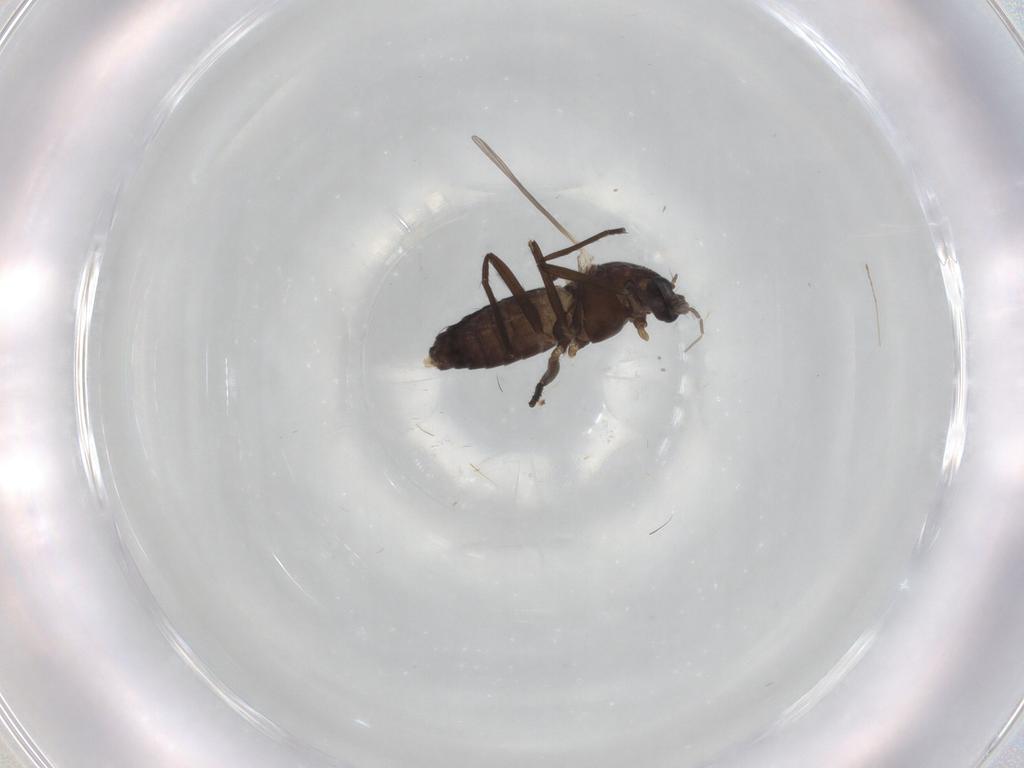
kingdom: Animalia
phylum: Arthropoda
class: Insecta
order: Diptera
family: Chironomidae
